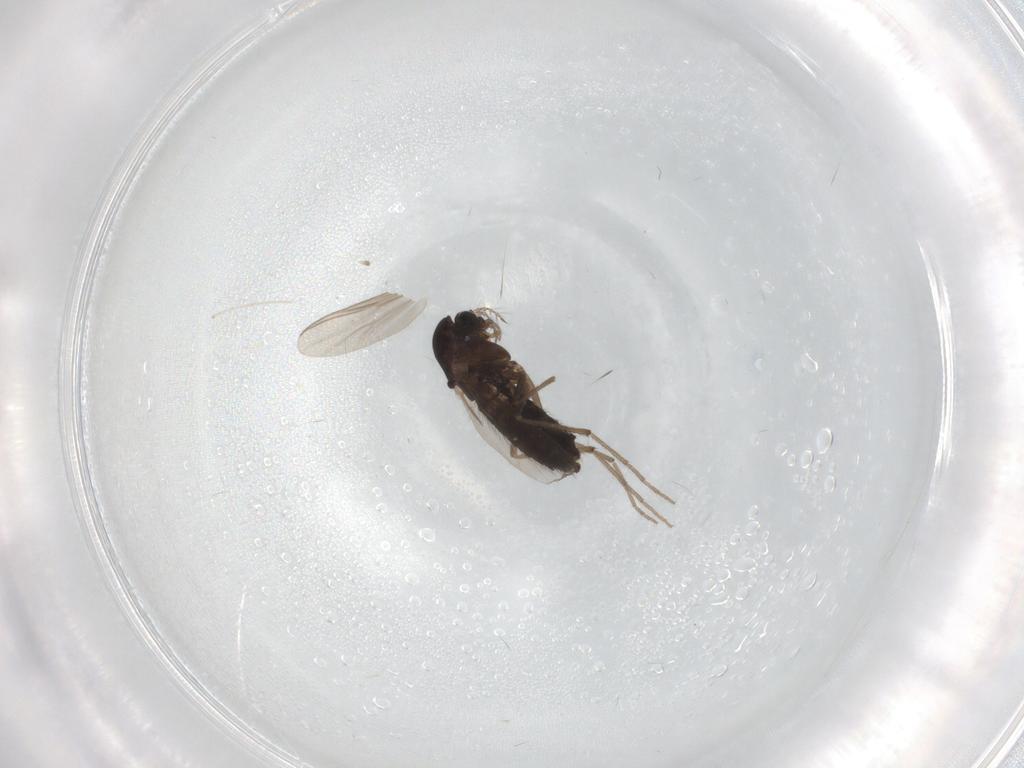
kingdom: Animalia
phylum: Arthropoda
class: Insecta
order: Diptera
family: Chironomidae
